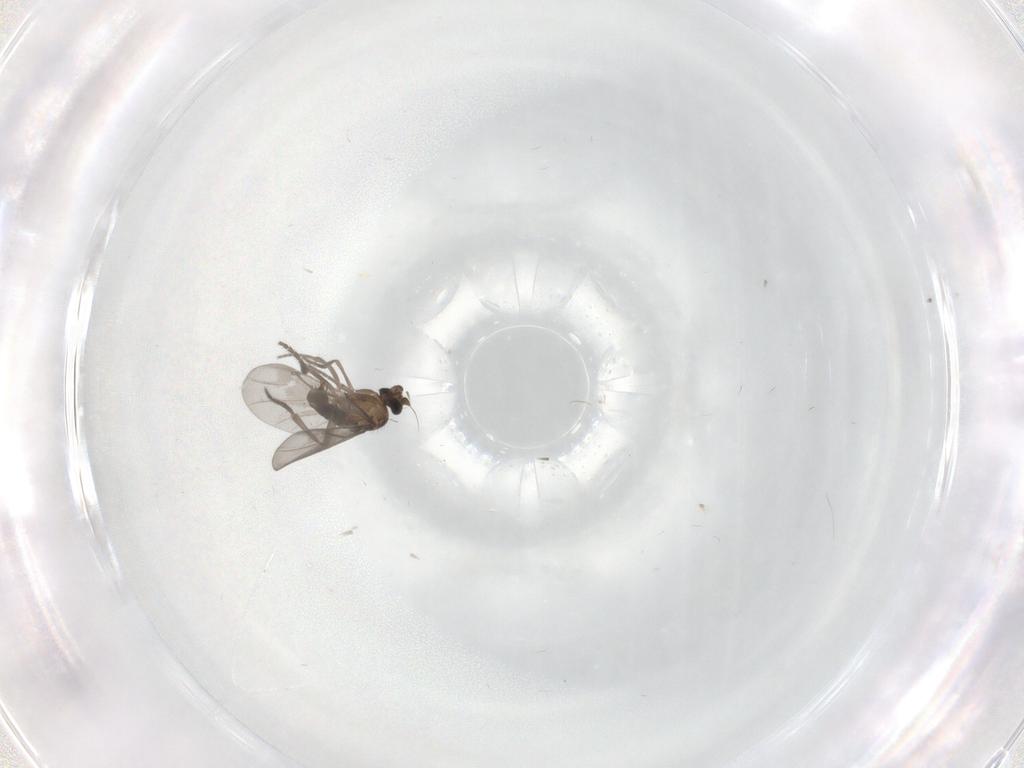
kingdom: Animalia
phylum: Arthropoda
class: Insecta
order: Diptera
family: Phoridae
